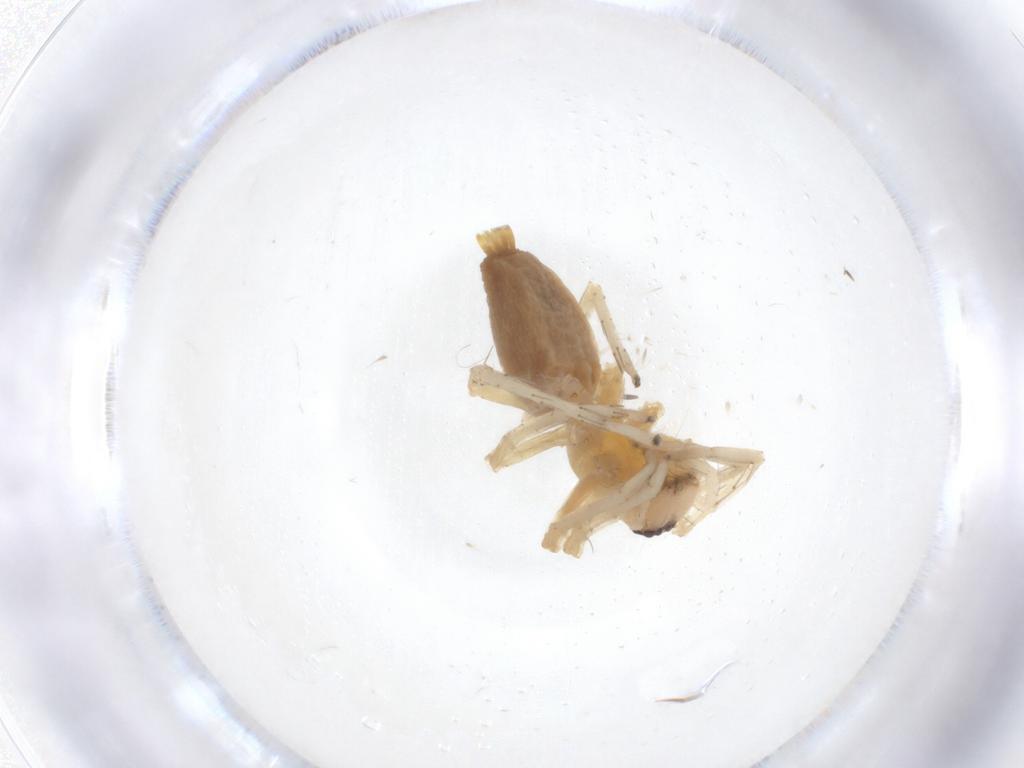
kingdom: Animalia
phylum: Arthropoda
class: Arachnida
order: Araneae
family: Clubionidae
